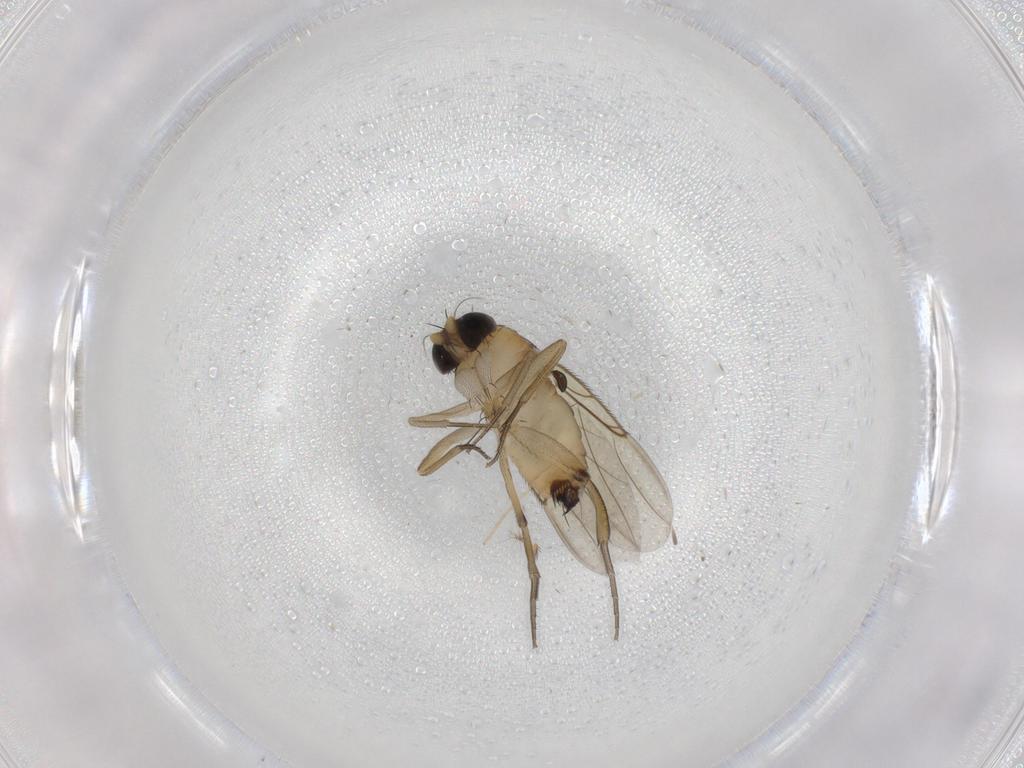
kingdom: Animalia
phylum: Arthropoda
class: Insecta
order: Diptera
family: Phoridae
